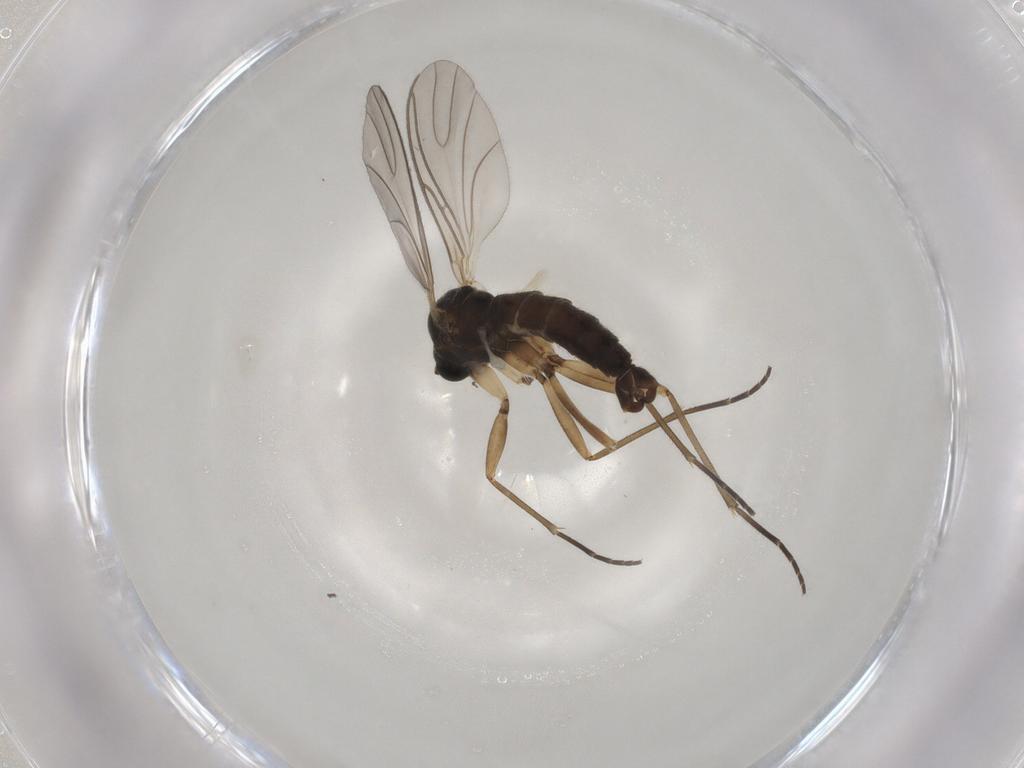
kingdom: Animalia
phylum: Arthropoda
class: Insecta
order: Diptera
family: Sciaridae
